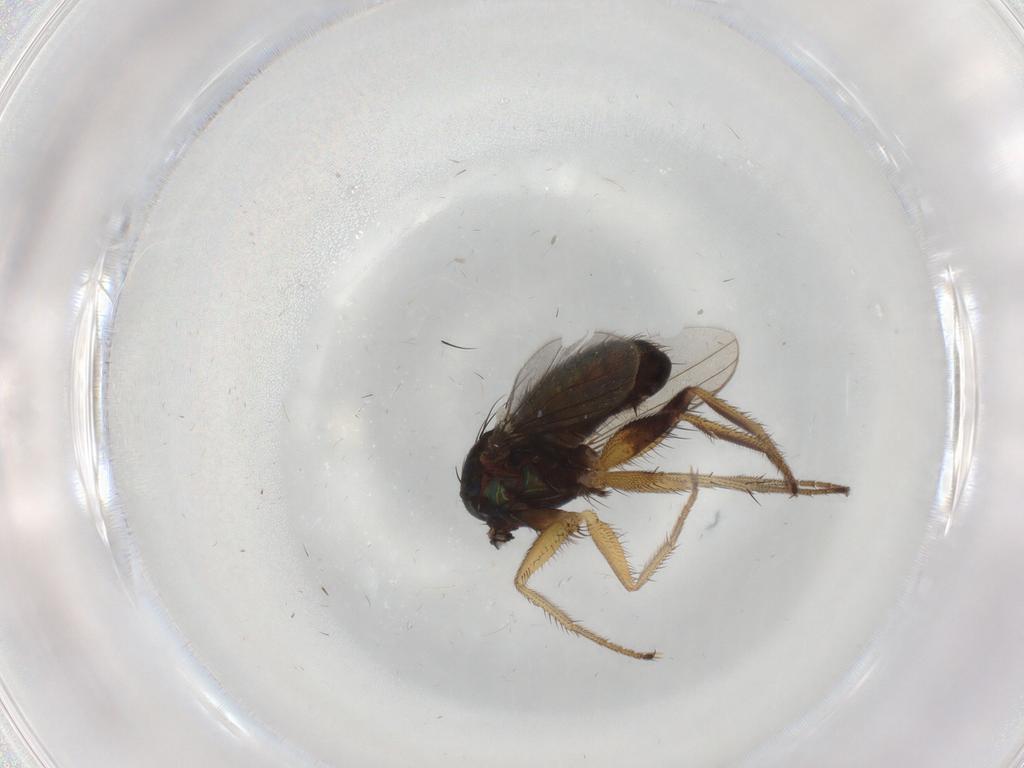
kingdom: Animalia
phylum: Arthropoda
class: Insecta
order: Diptera
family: Dolichopodidae
